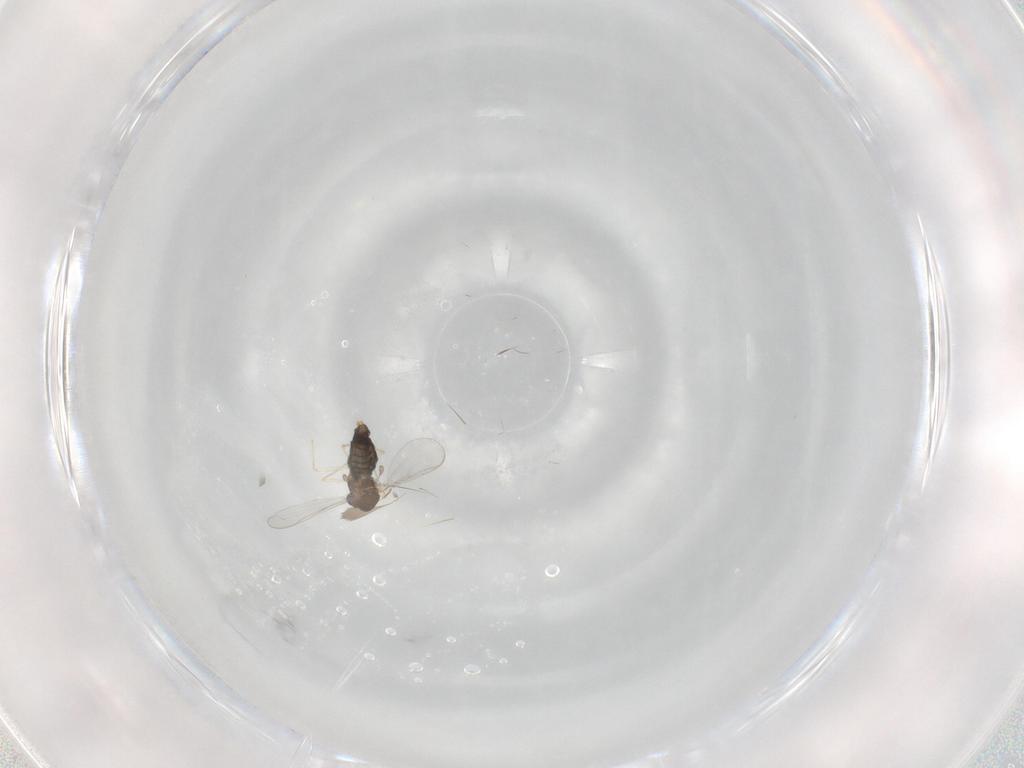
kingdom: Animalia
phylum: Arthropoda
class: Insecta
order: Diptera
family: Chironomidae
